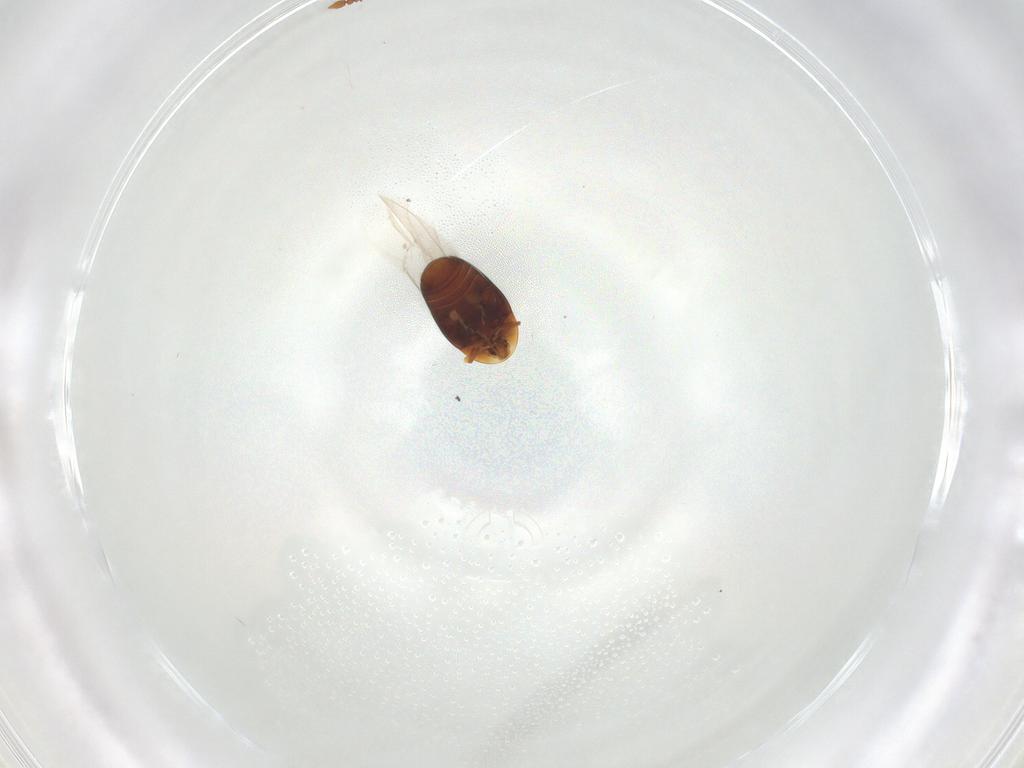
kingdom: Animalia
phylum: Arthropoda
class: Insecta
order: Coleoptera
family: Corylophidae
